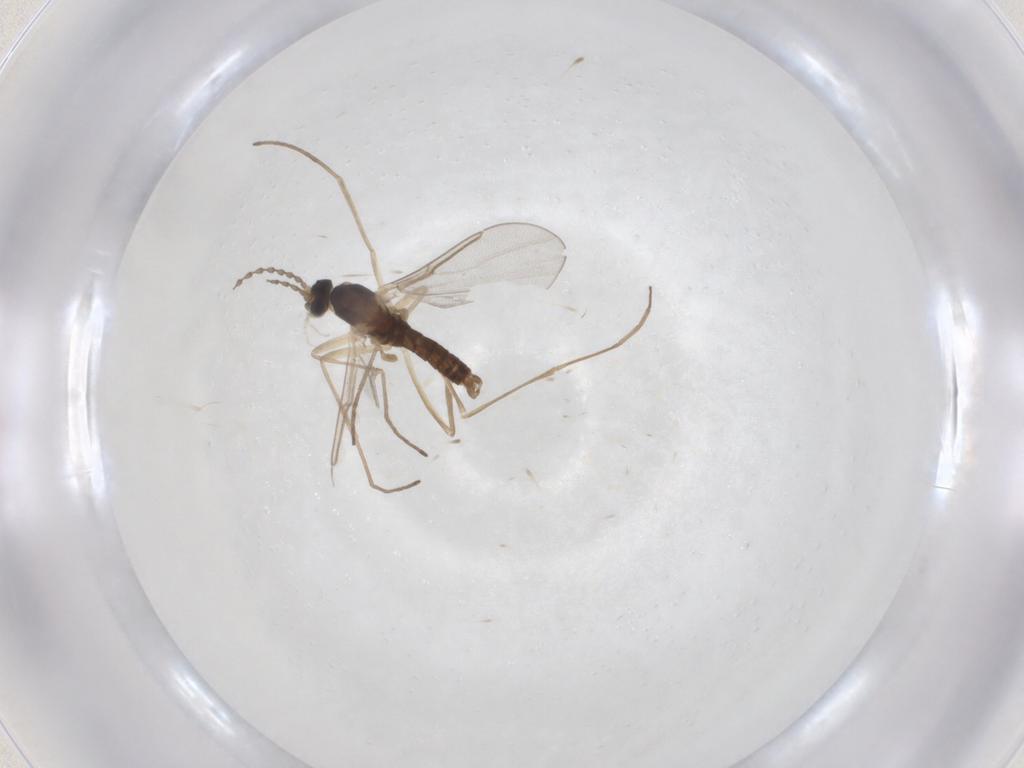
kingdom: Animalia
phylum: Arthropoda
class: Insecta
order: Diptera
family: Cecidomyiidae
